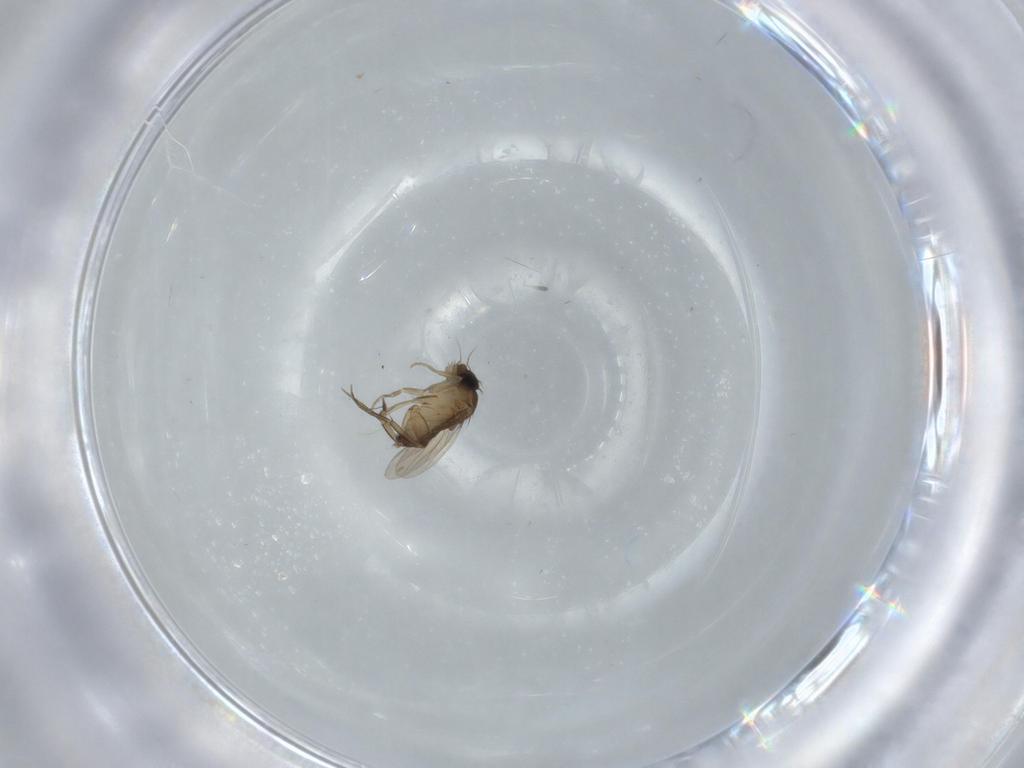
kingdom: Animalia
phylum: Arthropoda
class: Insecta
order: Diptera
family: Phoridae
